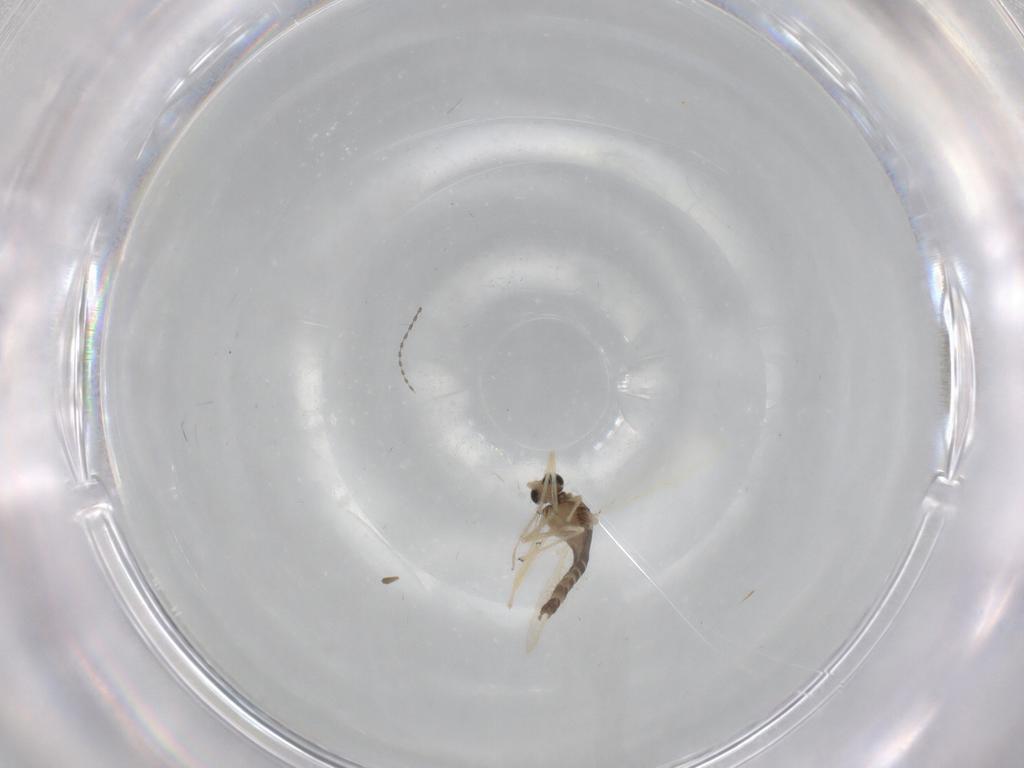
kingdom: Animalia
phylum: Arthropoda
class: Insecta
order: Diptera
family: Chironomidae
